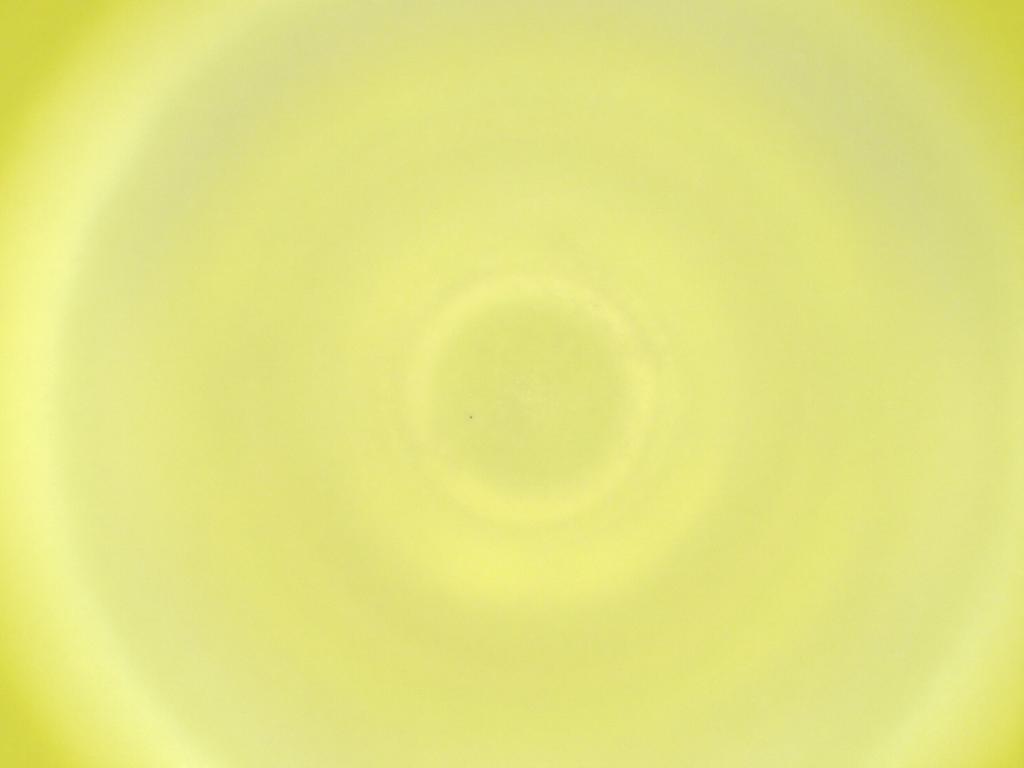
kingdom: Animalia
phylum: Arthropoda
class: Insecta
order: Diptera
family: Cecidomyiidae
